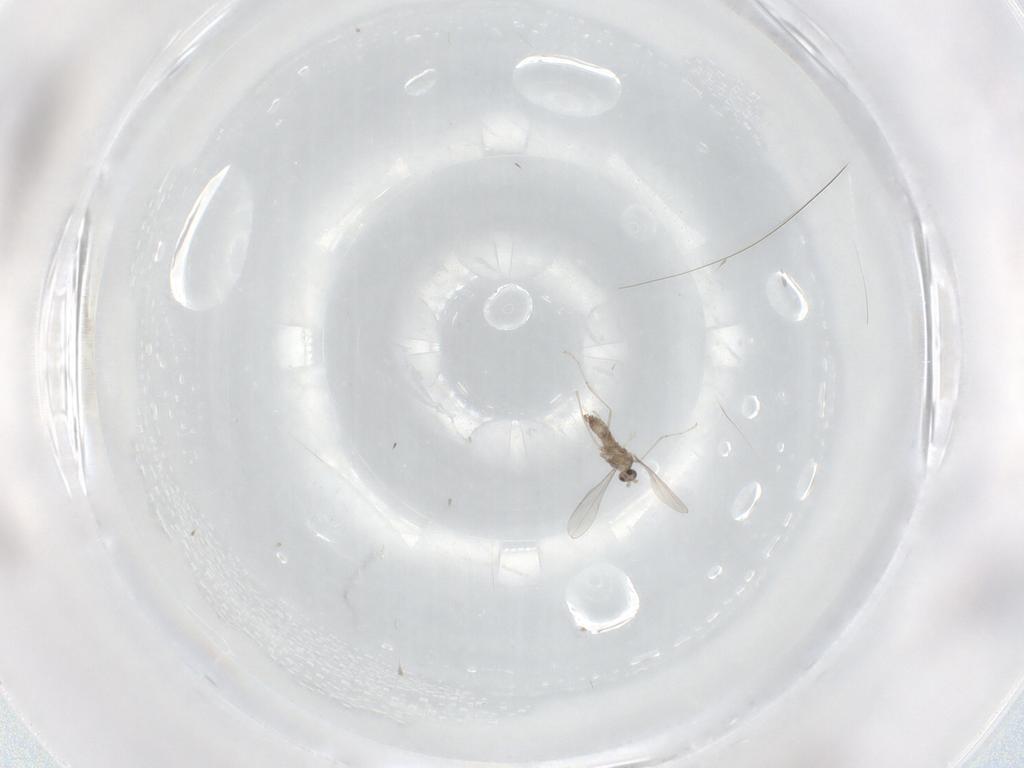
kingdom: Animalia
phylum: Arthropoda
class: Insecta
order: Diptera
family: Cecidomyiidae
